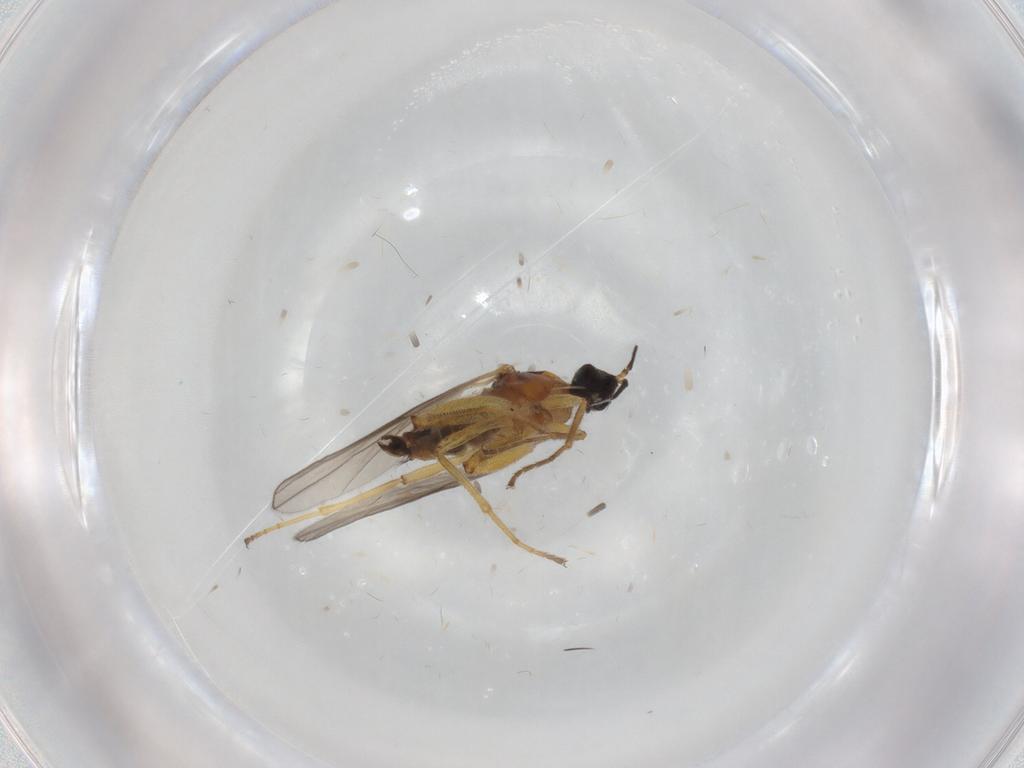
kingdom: Animalia
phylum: Arthropoda
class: Insecta
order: Diptera
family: Hybotidae
